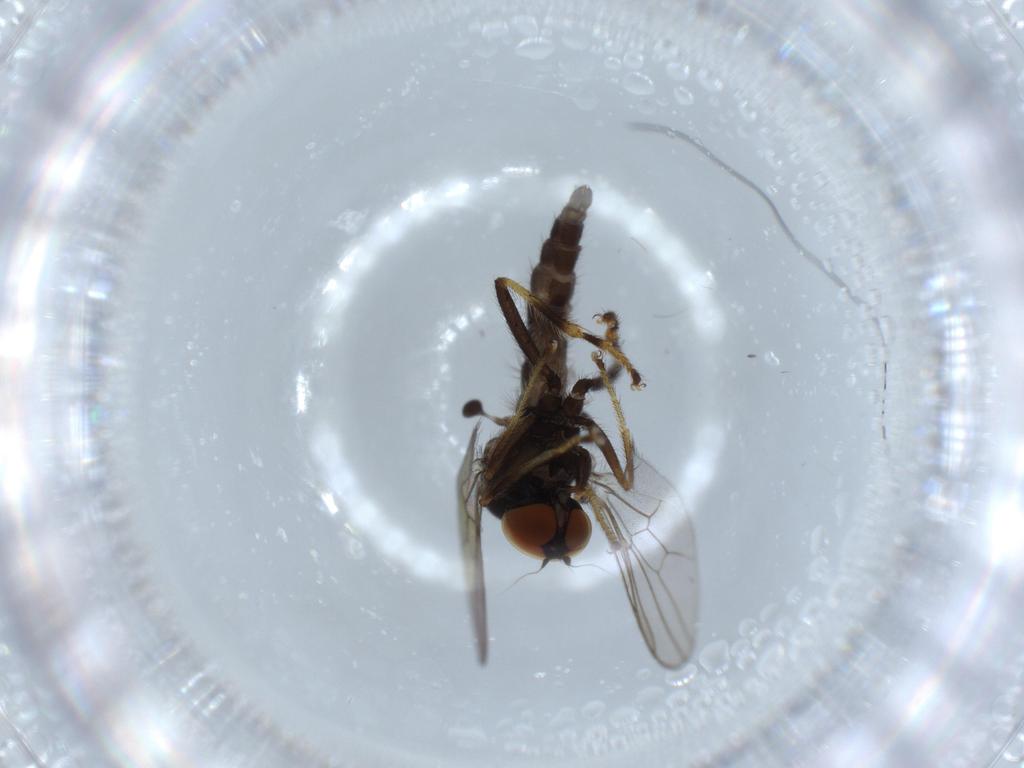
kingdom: Animalia
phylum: Arthropoda
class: Insecta
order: Diptera
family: Hybotidae
